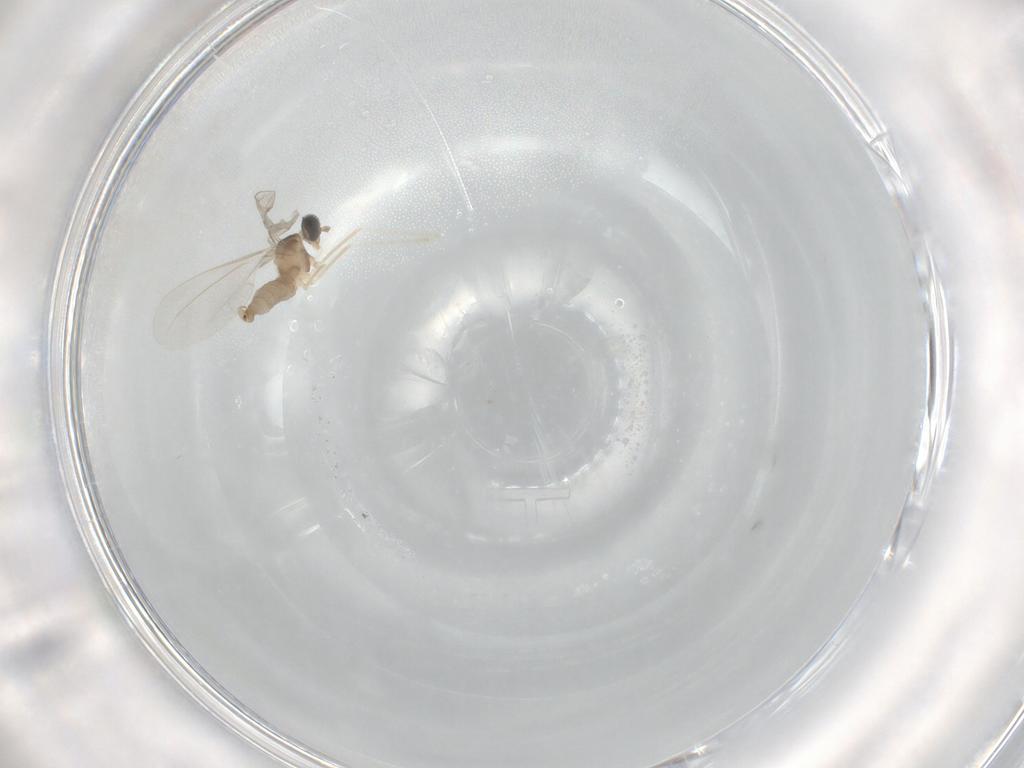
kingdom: Animalia
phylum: Arthropoda
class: Insecta
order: Diptera
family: Cecidomyiidae
